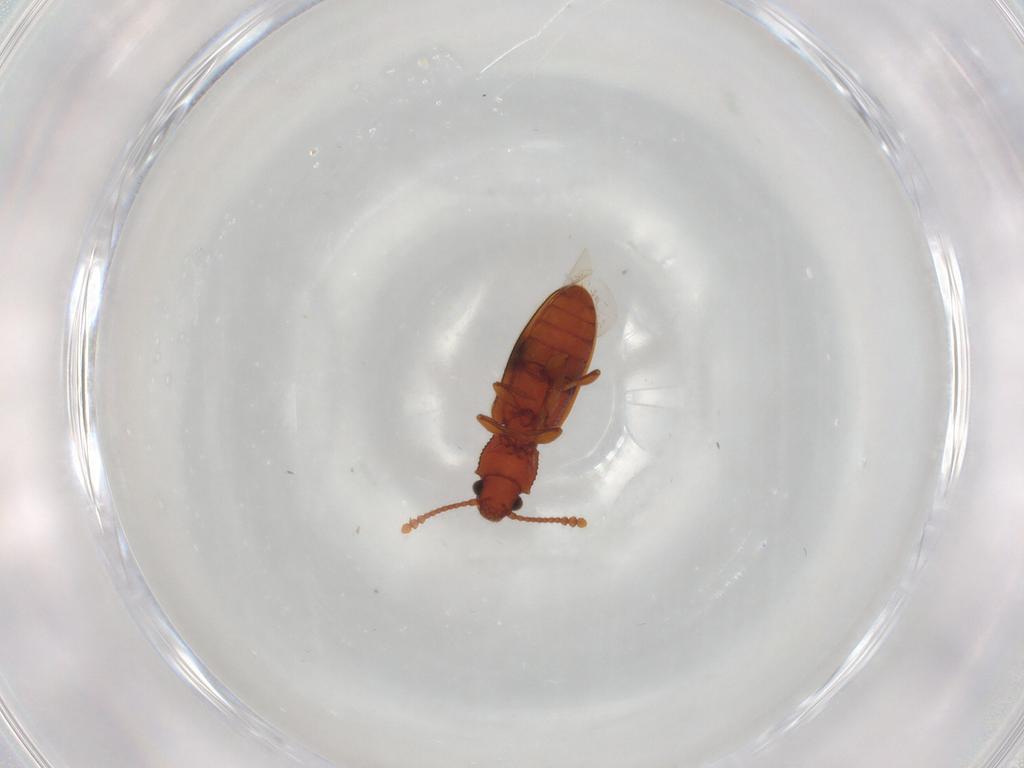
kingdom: Animalia
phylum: Arthropoda
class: Insecta
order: Coleoptera
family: Silvanidae
